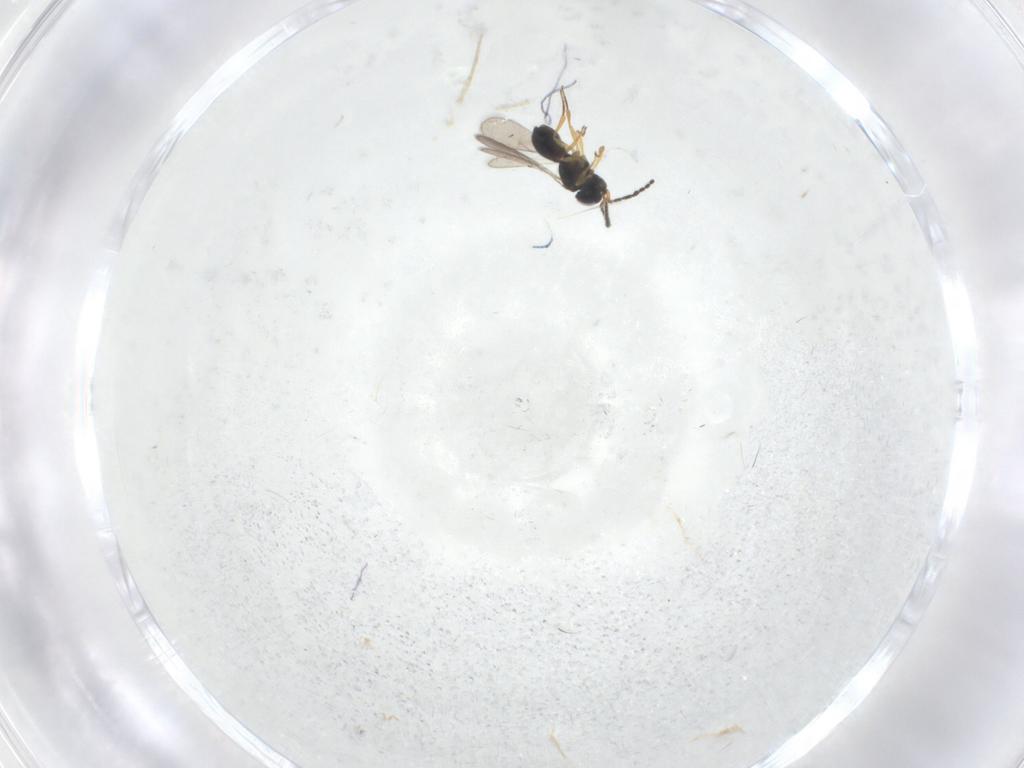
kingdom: Animalia
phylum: Arthropoda
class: Insecta
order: Hymenoptera
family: Scelionidae
